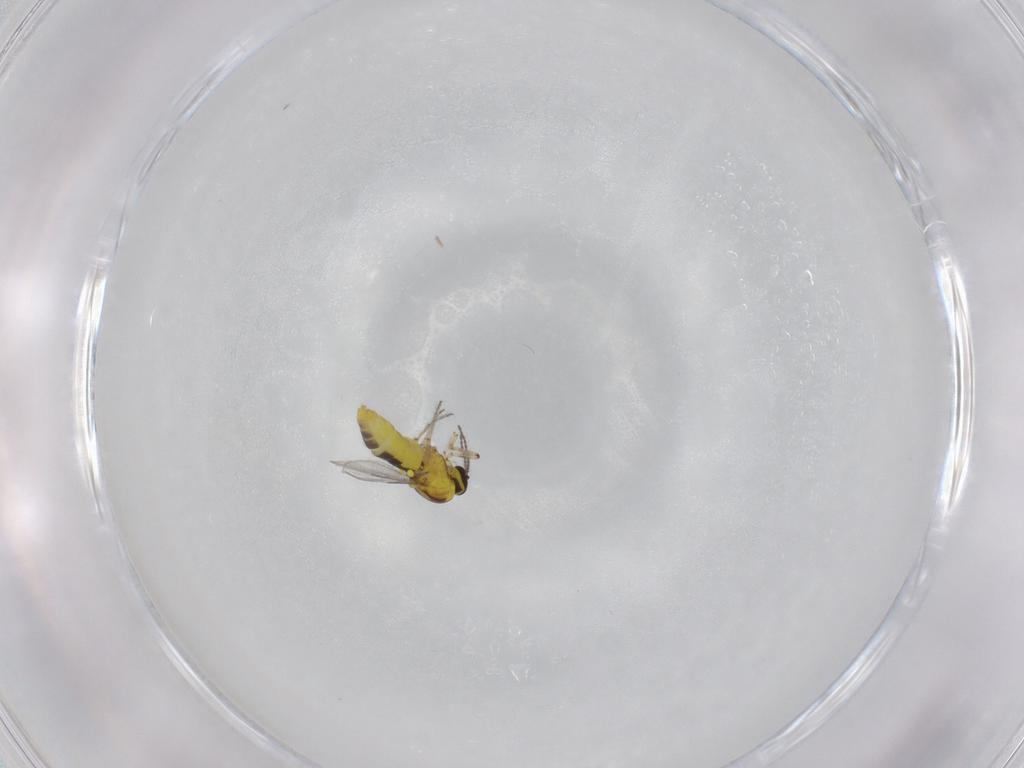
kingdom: Animalia
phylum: Arthropoda
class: Insecta
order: Diptera
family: Ceratopogonidae
